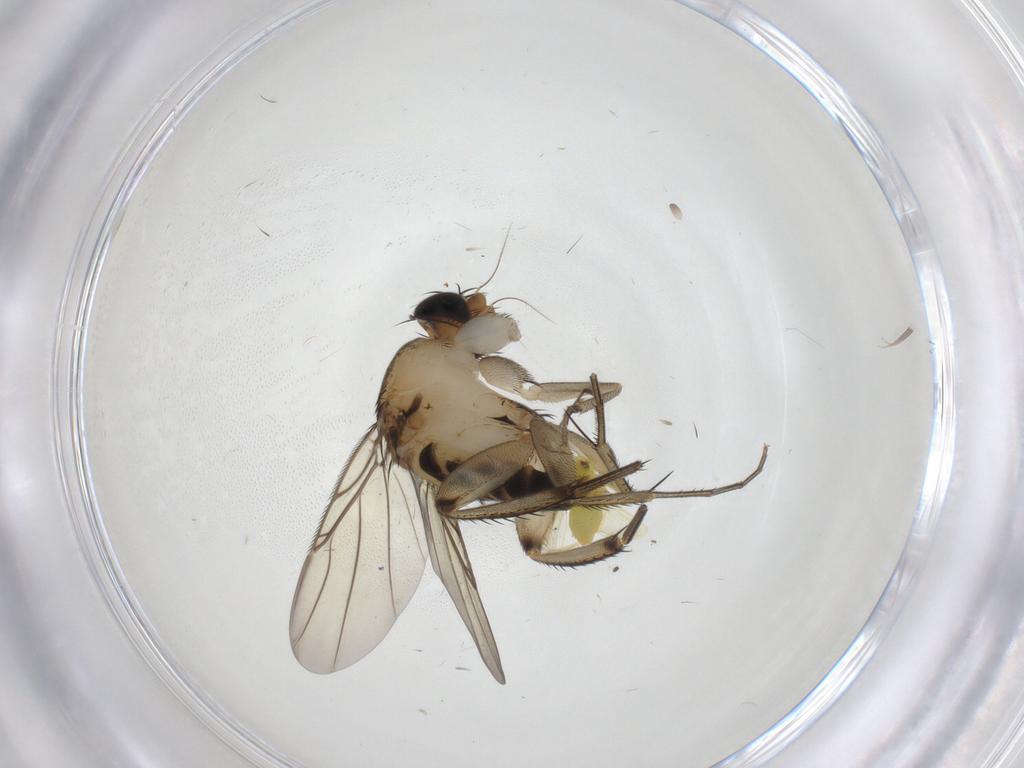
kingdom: Animalia
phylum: Arthropoda
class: Insecta
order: Diptera
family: Phoridae
